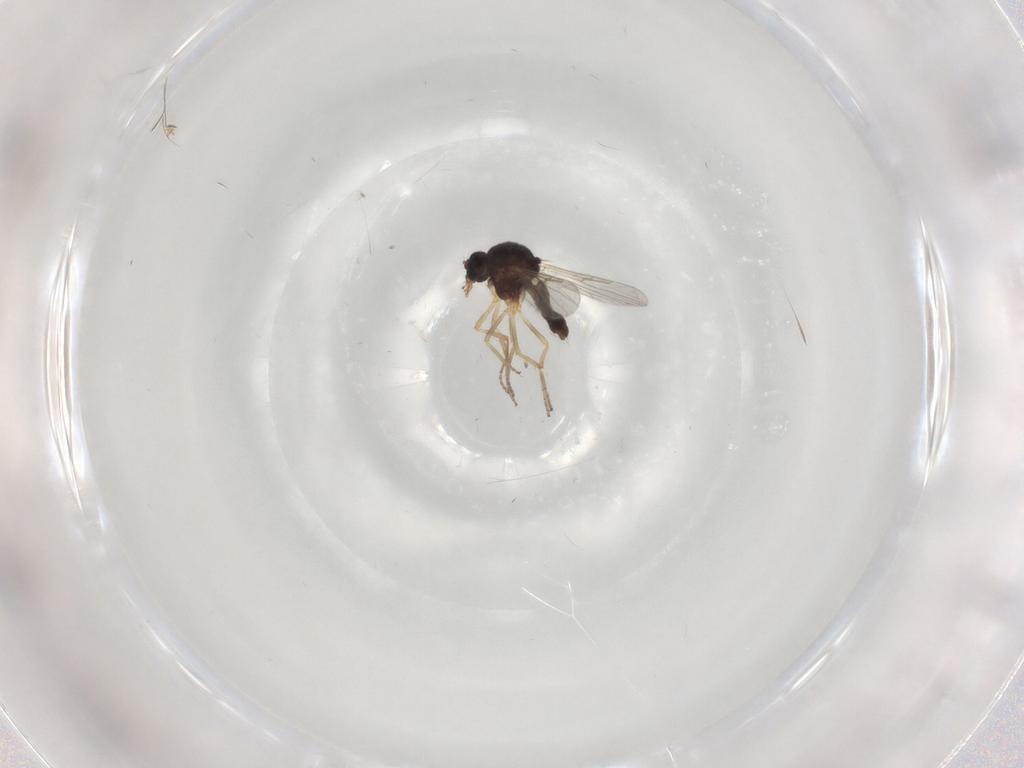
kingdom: Animalia
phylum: Arthropoda
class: Insecta
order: Diptera
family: Ceratopogonidae
